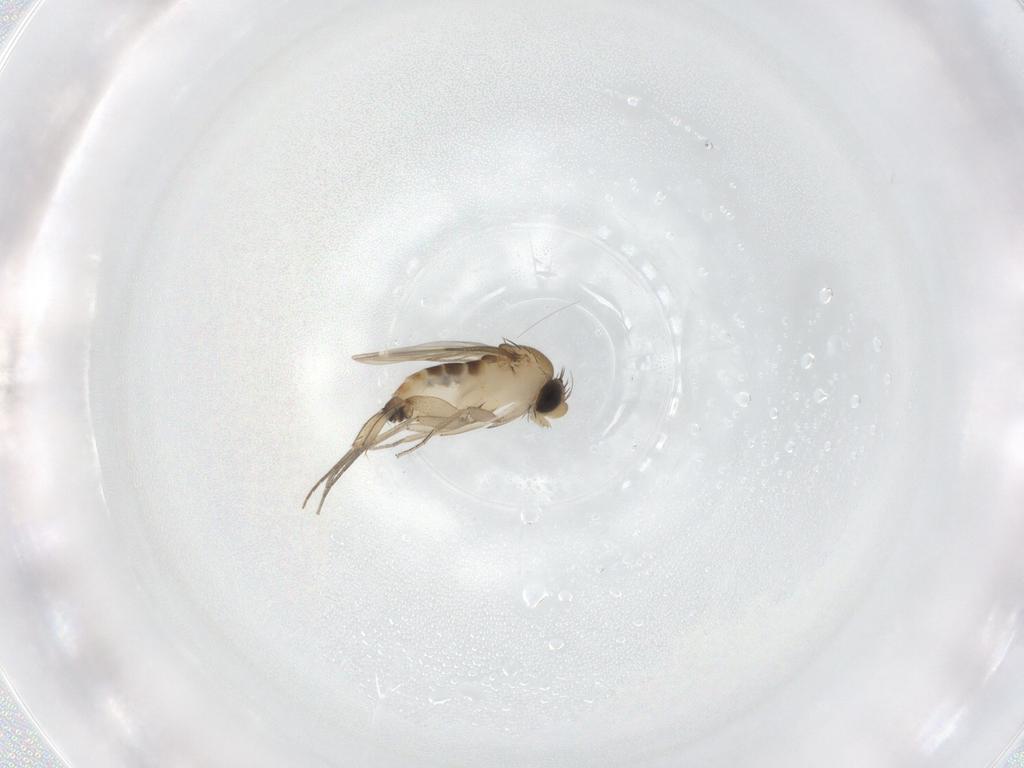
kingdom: Animalia
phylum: Arthropoda
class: Insecta
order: Diptera
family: Phoridae
